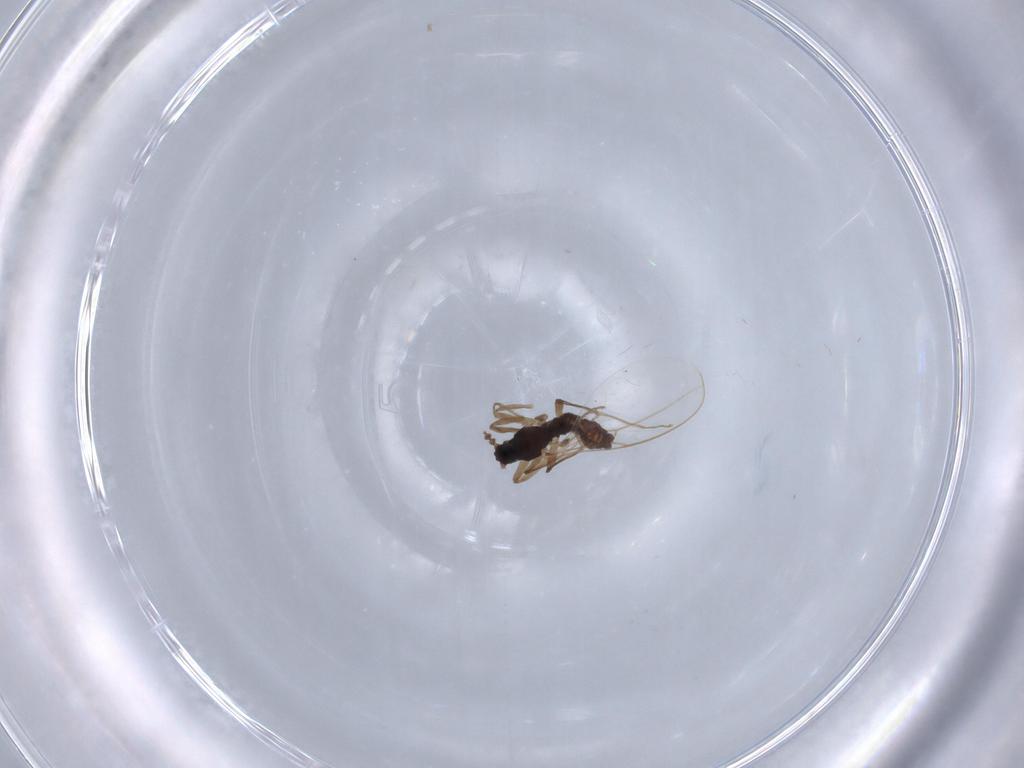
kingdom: Animalia
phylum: Arthropoda
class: Insecta
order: Diptera
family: Cecidomyiidae
